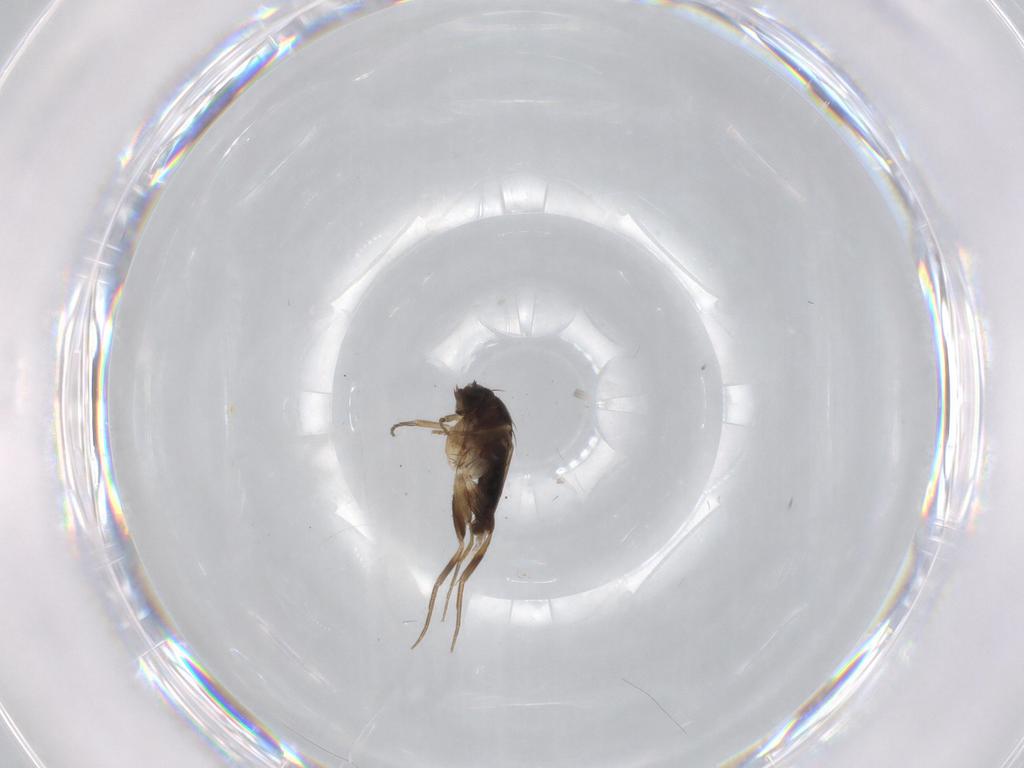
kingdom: Animalia
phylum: Arthropoda
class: Insecta
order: Diptera
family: Phoridae
